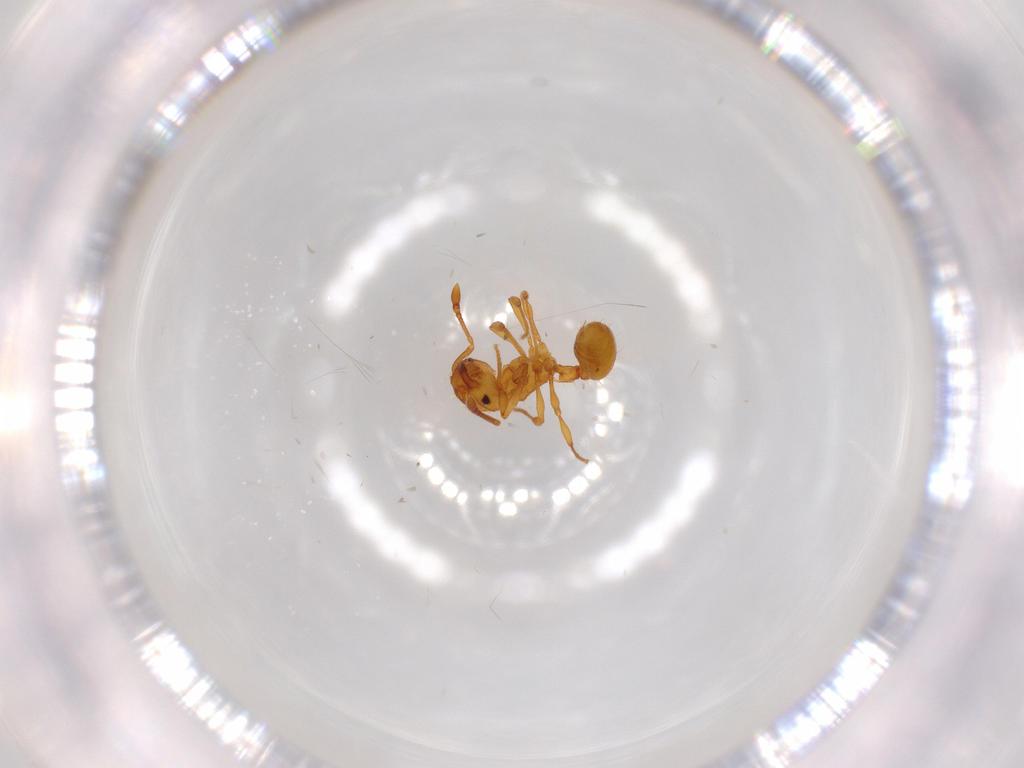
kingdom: Animalia
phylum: Arthropoda
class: Insecta
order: Hymenoptera
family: Formicidae
